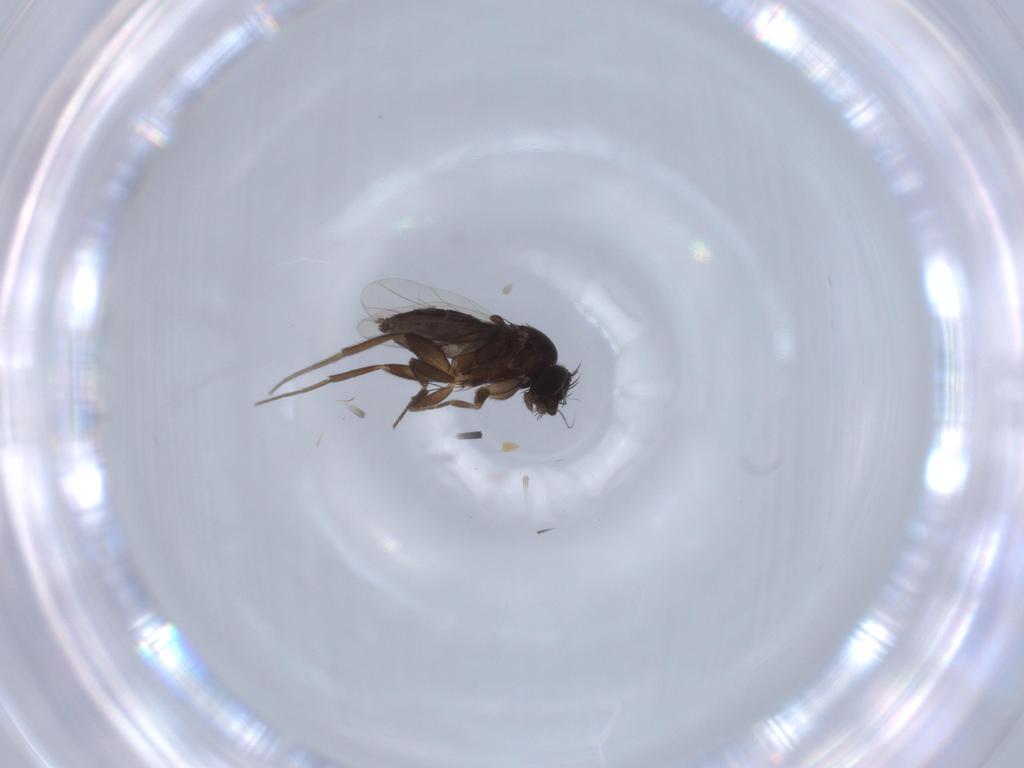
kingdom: Animalia
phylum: Arthropoda
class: Insecta
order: Diptera
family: Phoridae
